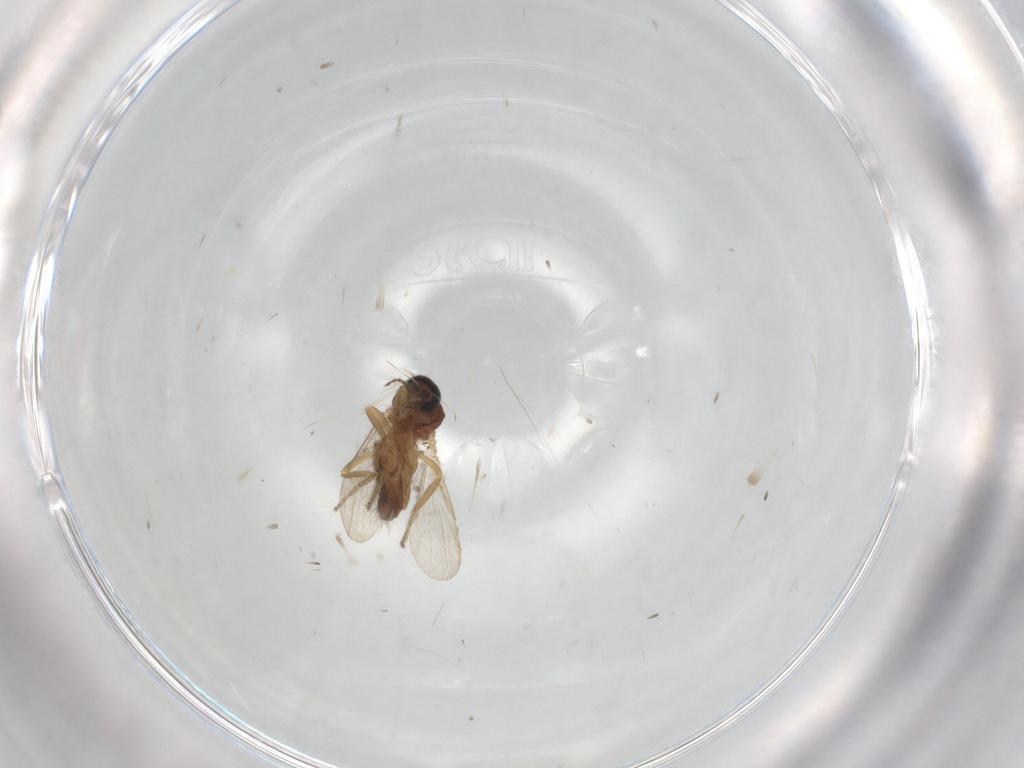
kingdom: Animalia
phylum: Arthropoda
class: Insecta
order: Diptera
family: Ceratopogonidae
